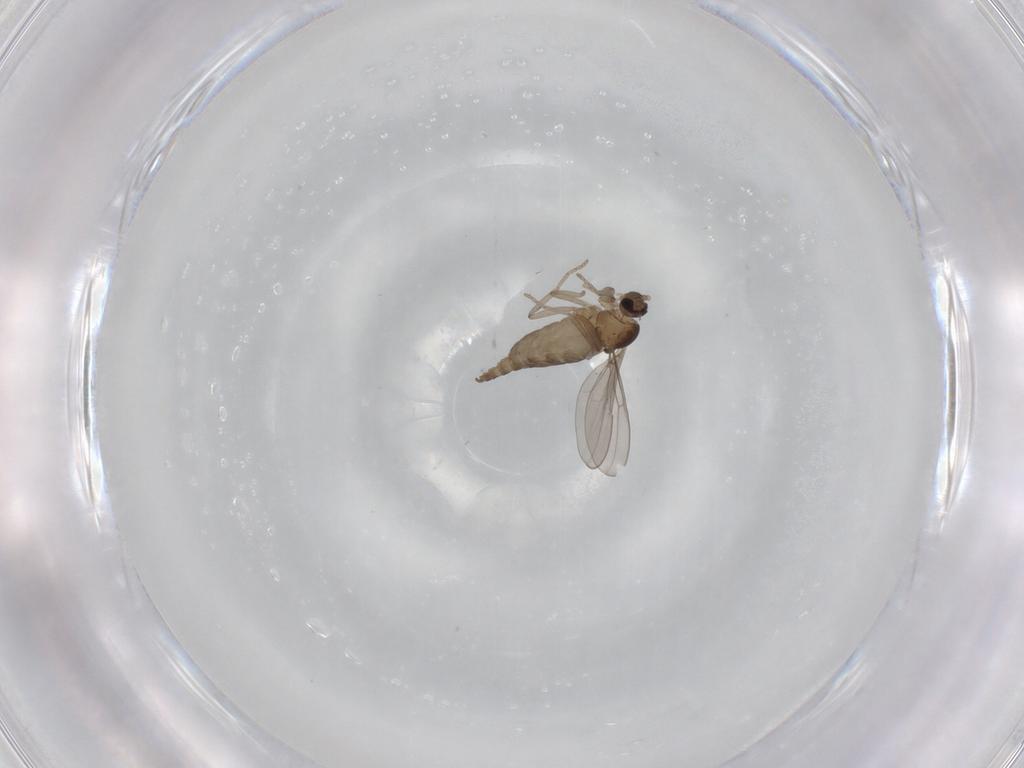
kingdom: Animalia
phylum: Arthropoda
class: Insecta
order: Diptera
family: Cecidomyiidae
